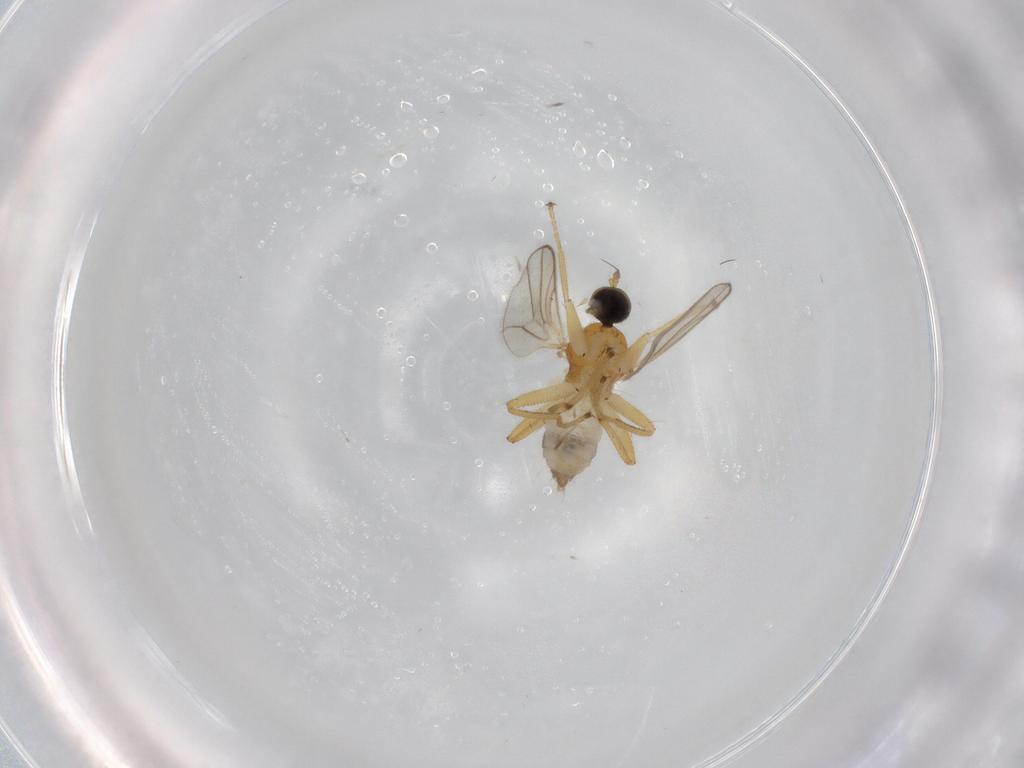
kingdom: Animalia
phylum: Arthropoda
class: Insecta
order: Diptera
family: Hybotidae
